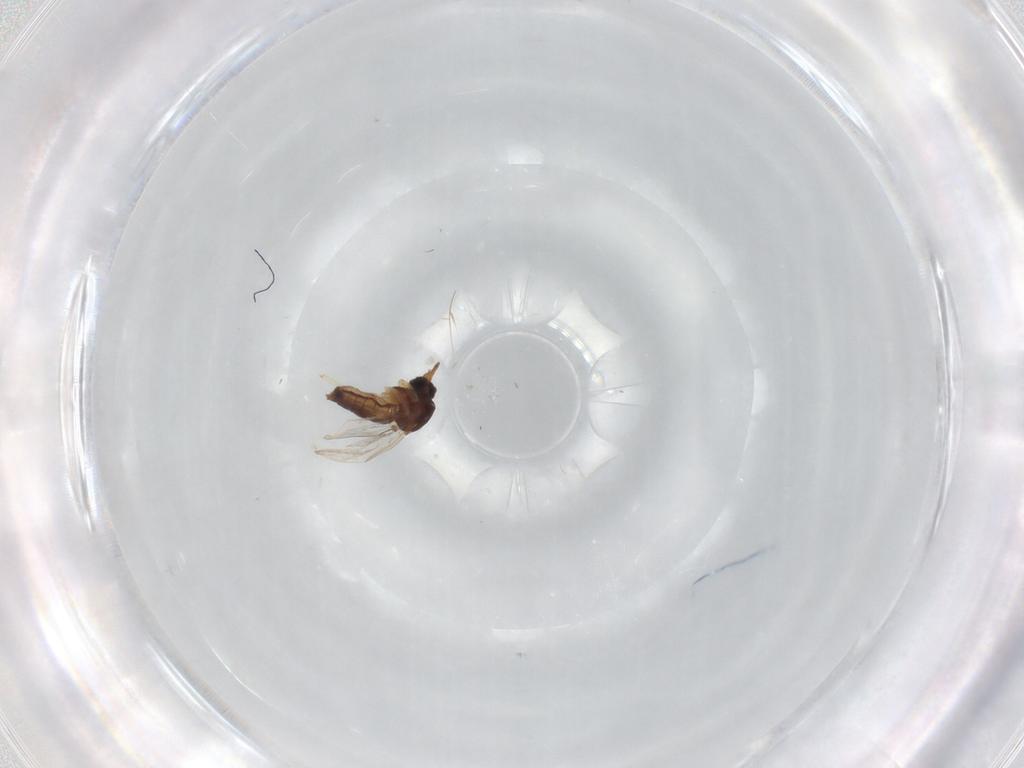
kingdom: Animalia
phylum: Arthropoda
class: Insecta
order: Diptera
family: Ceratopogonidae
